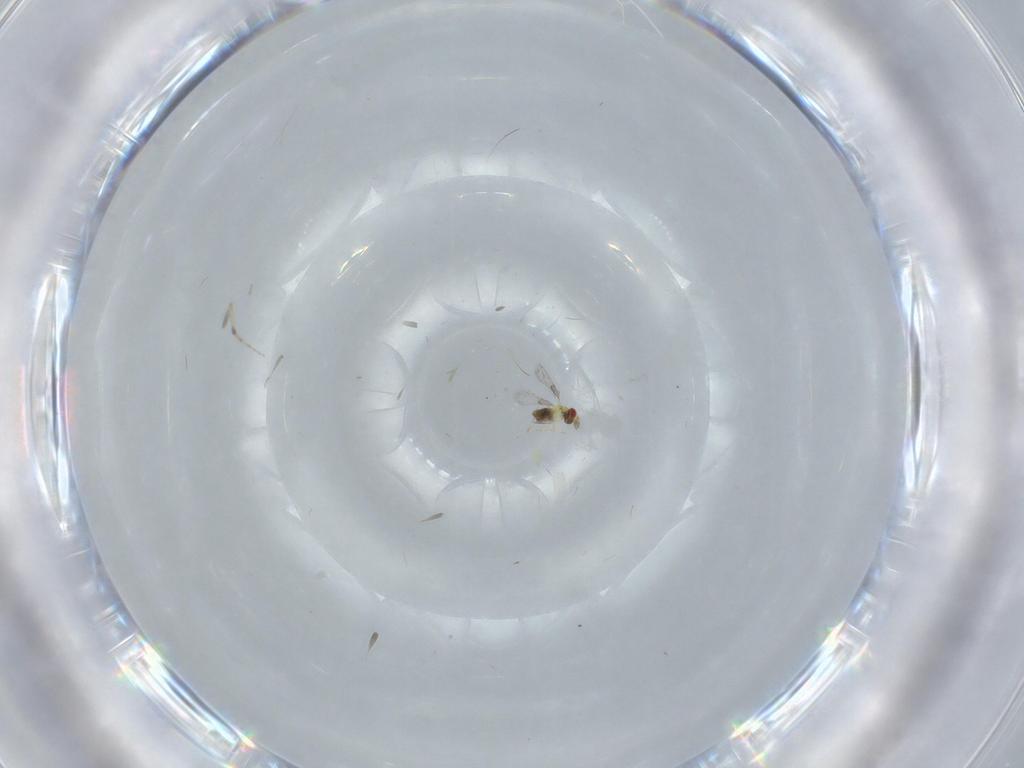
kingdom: Animalia
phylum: Arthropoda
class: Insecta
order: Hymenoptera
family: Trichogrammatidae
